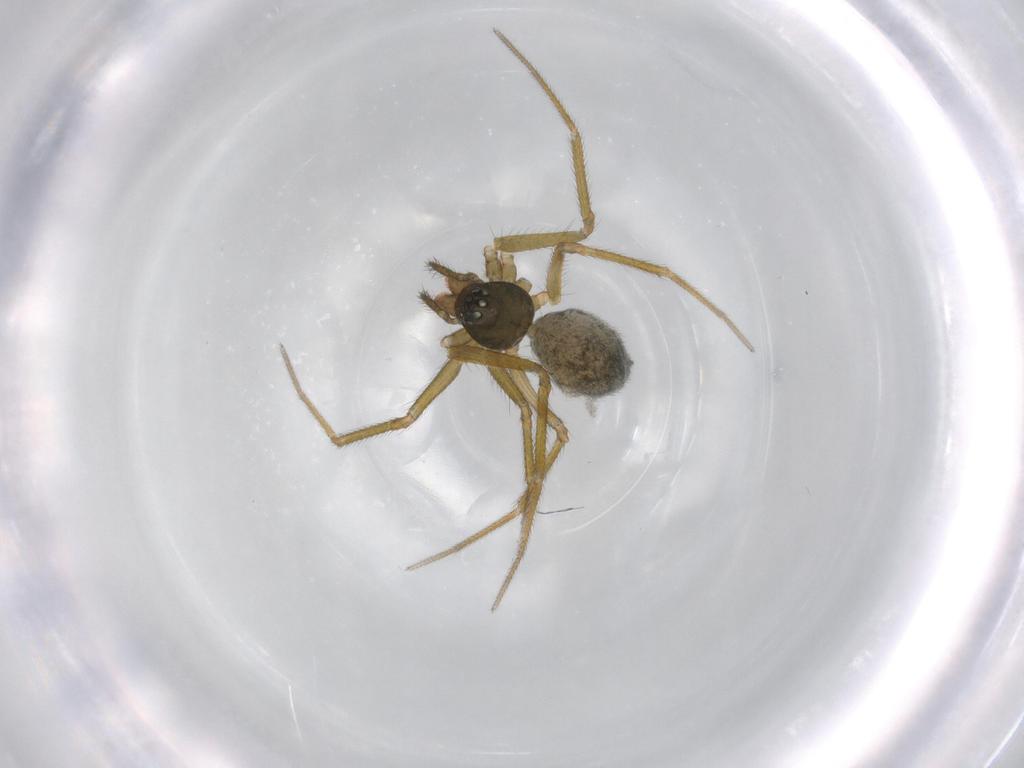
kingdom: Animalia
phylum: Arthropoda
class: Arachnida
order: Araneae
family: Linyphiidae
